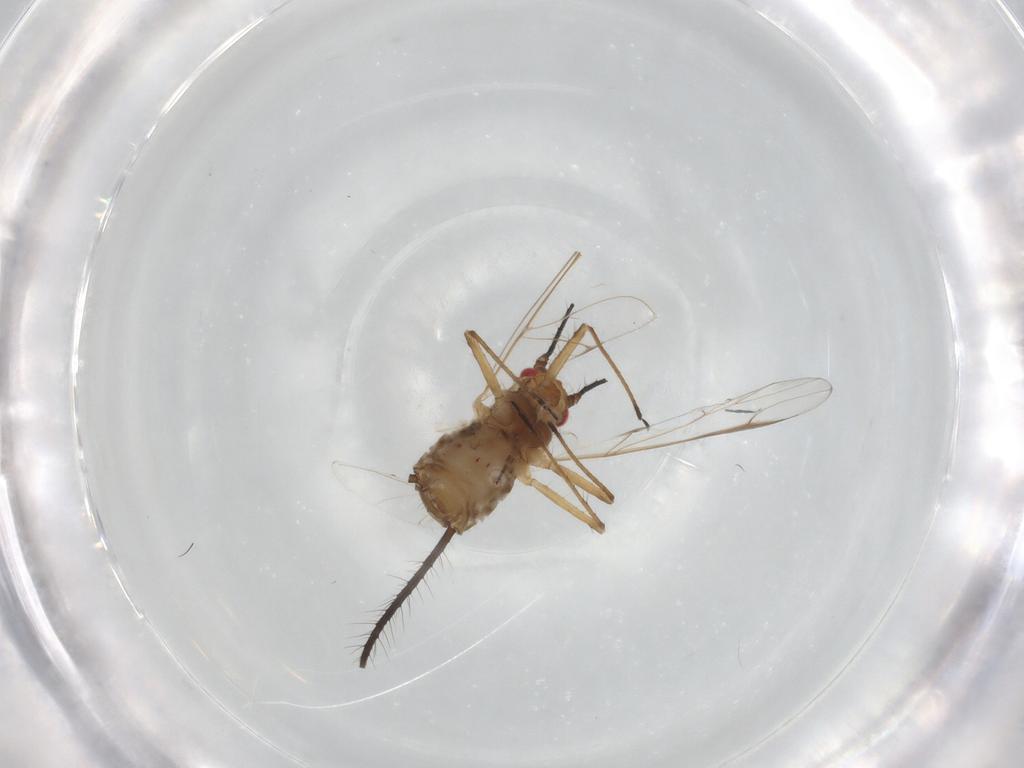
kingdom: Animalia
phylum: Arthropoda
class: Insecta
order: Hemiptera
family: Aphididae
